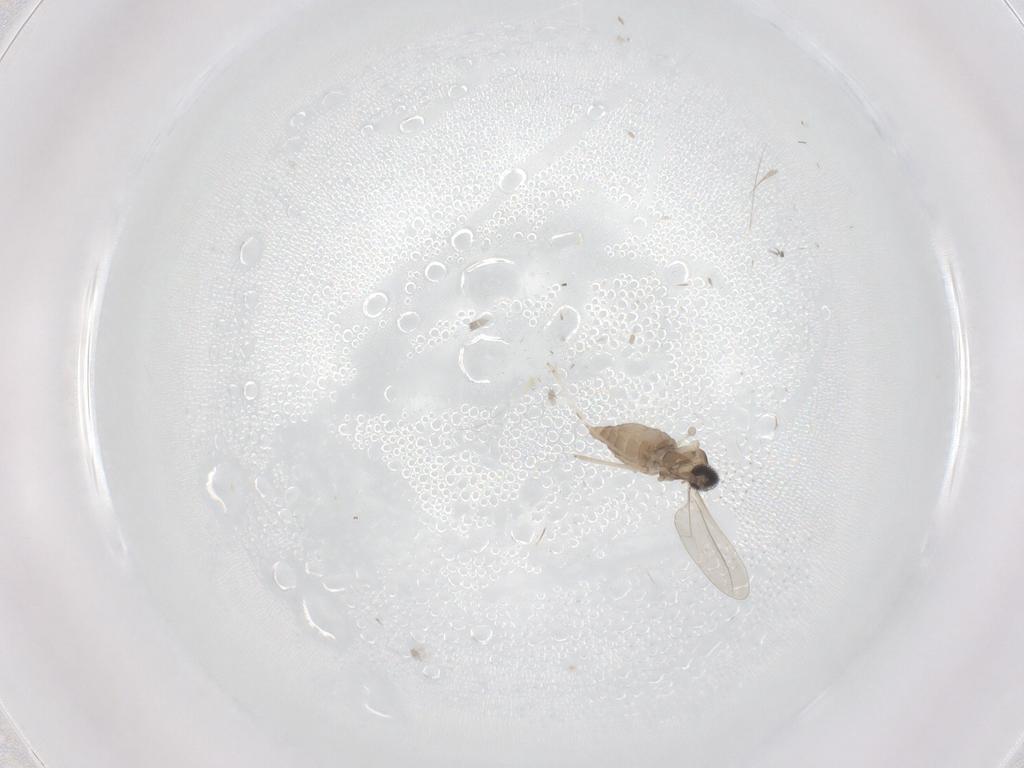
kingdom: Animalia
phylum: Arthropoda
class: Insecta
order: Diptera
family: Cecidomyiidae
